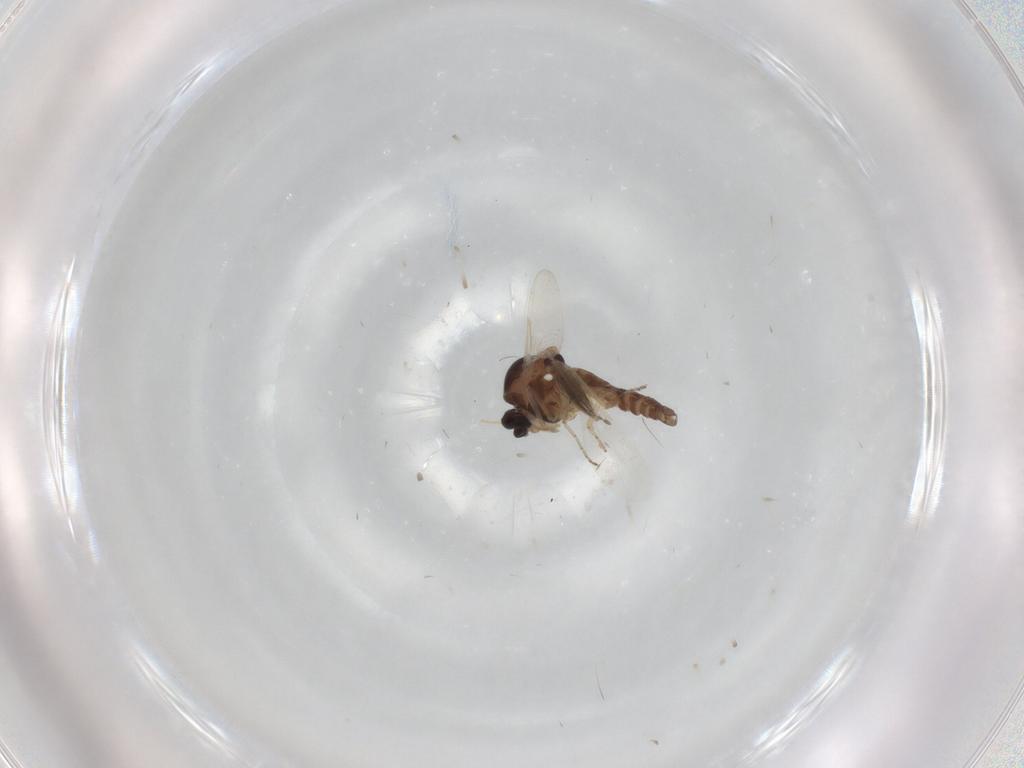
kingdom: Animalia
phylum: Arthropoda
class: Insecta
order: Diptera
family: Ceratopogonidae
